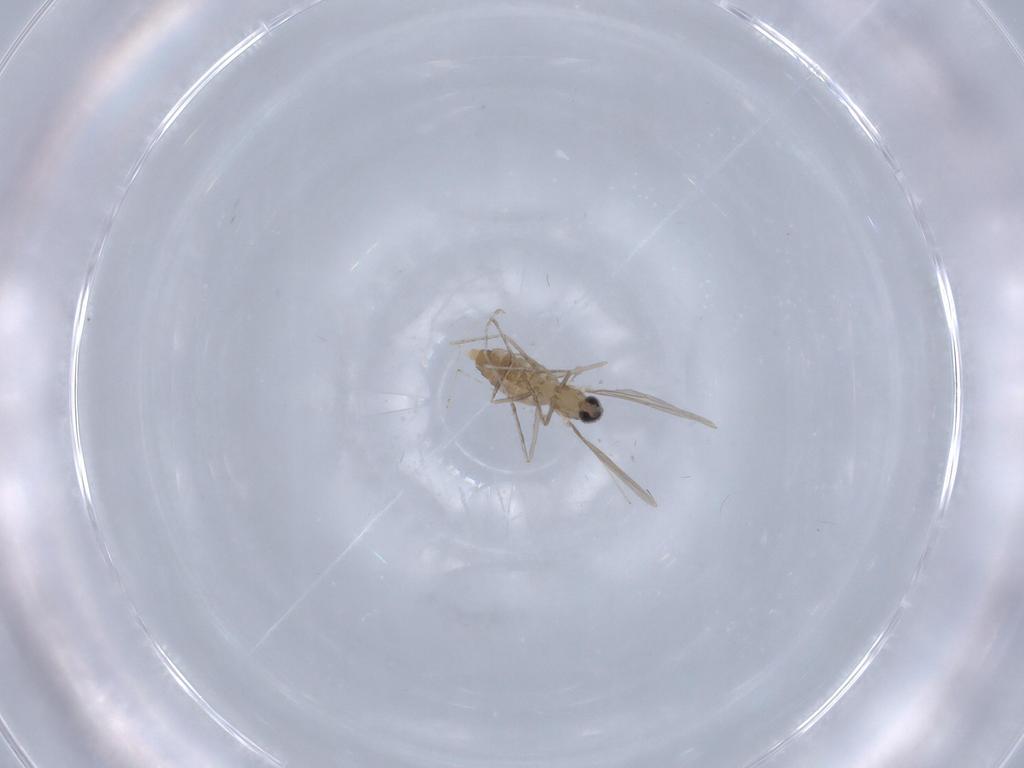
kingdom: Animalia
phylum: Arthropoda
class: Insecta
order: Diptera
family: Cecidomyiidae
